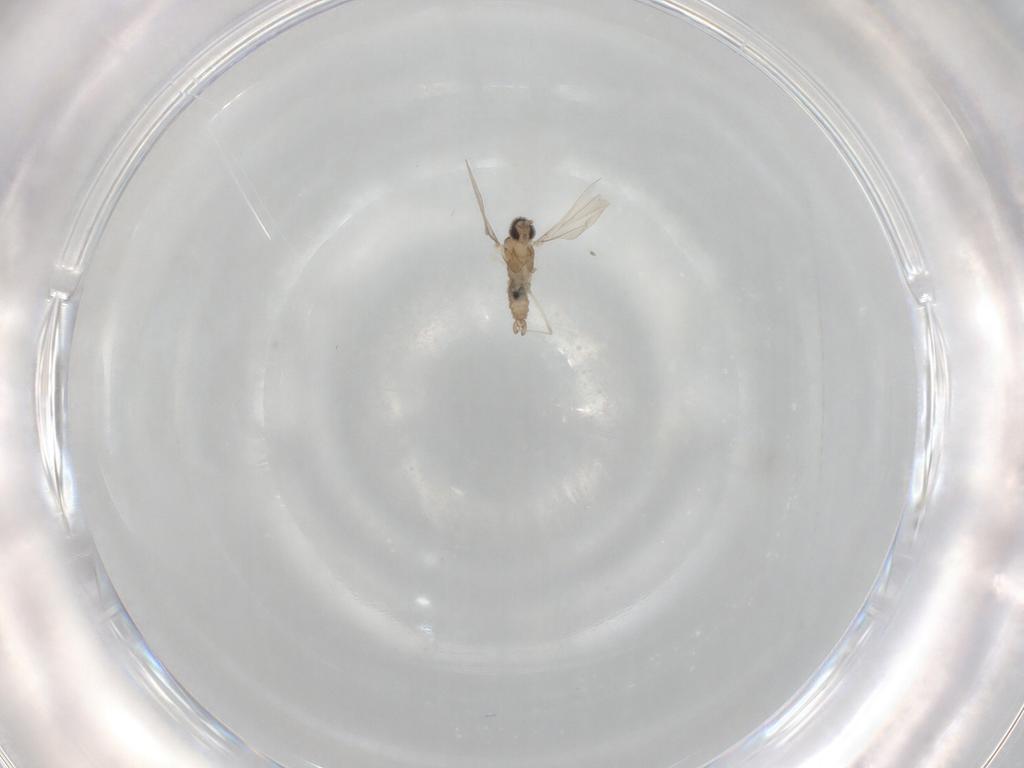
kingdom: Animalia
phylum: Arthropoda
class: Insecta
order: Diptera
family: Cecidomyiidae
